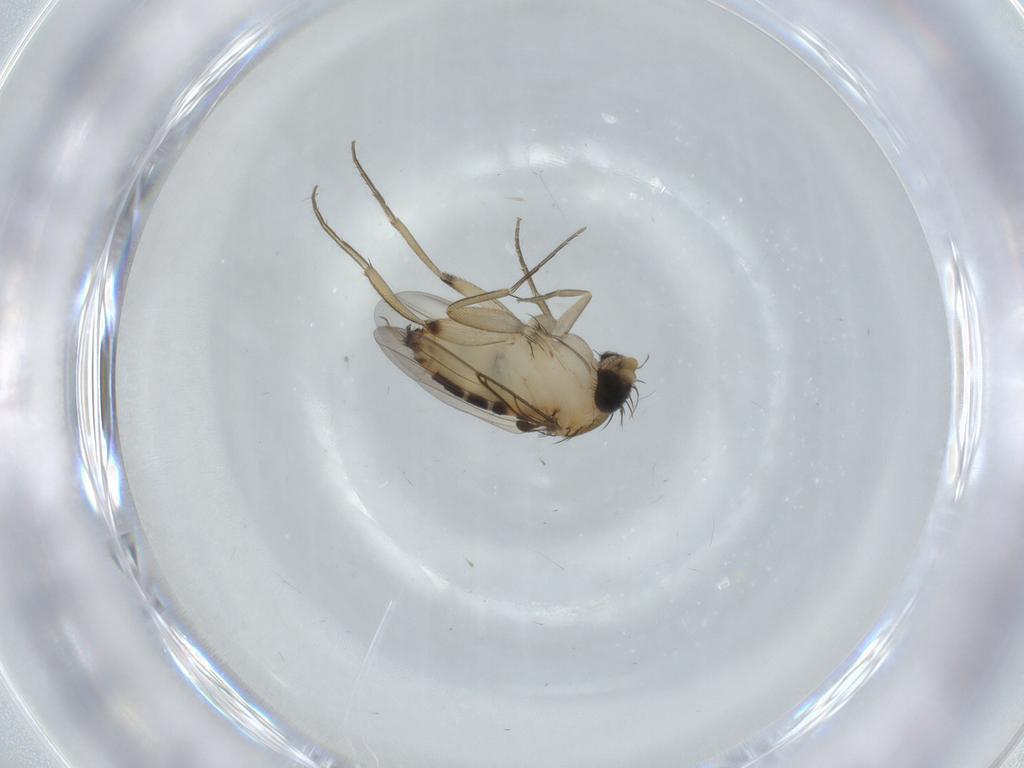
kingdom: Animalia
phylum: Arthropoda
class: Insecta
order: Diptera
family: Phoridae
